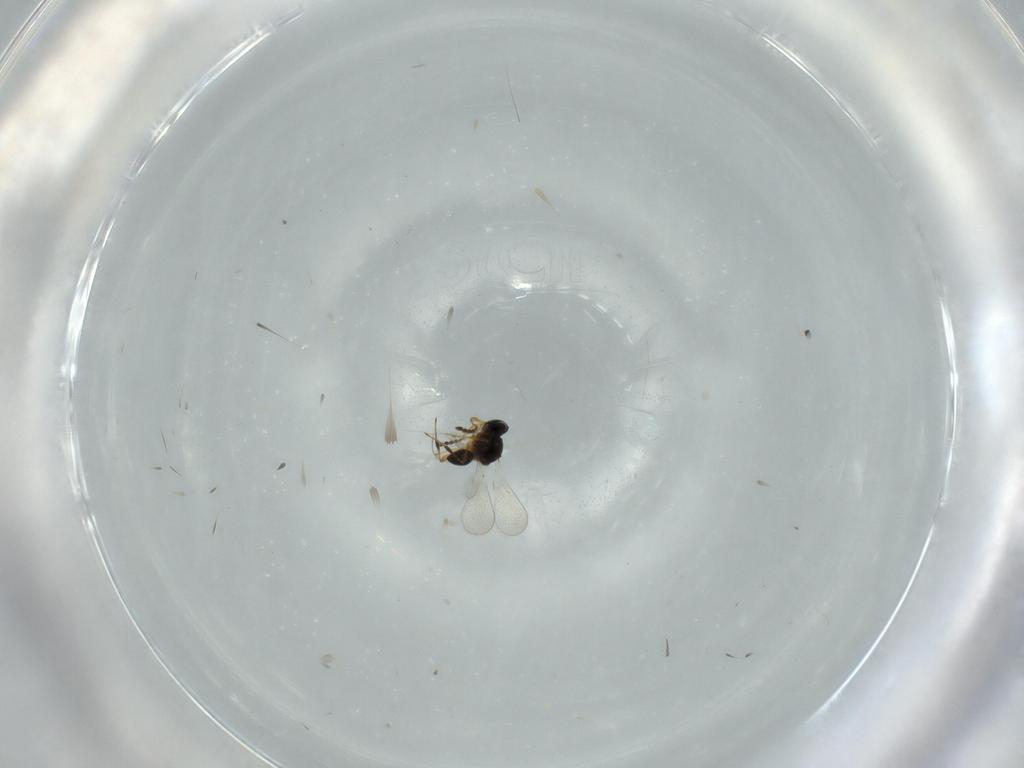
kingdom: Animalia
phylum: Arthropoda
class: Insecta
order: Hymenoptera
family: Platygastridae
